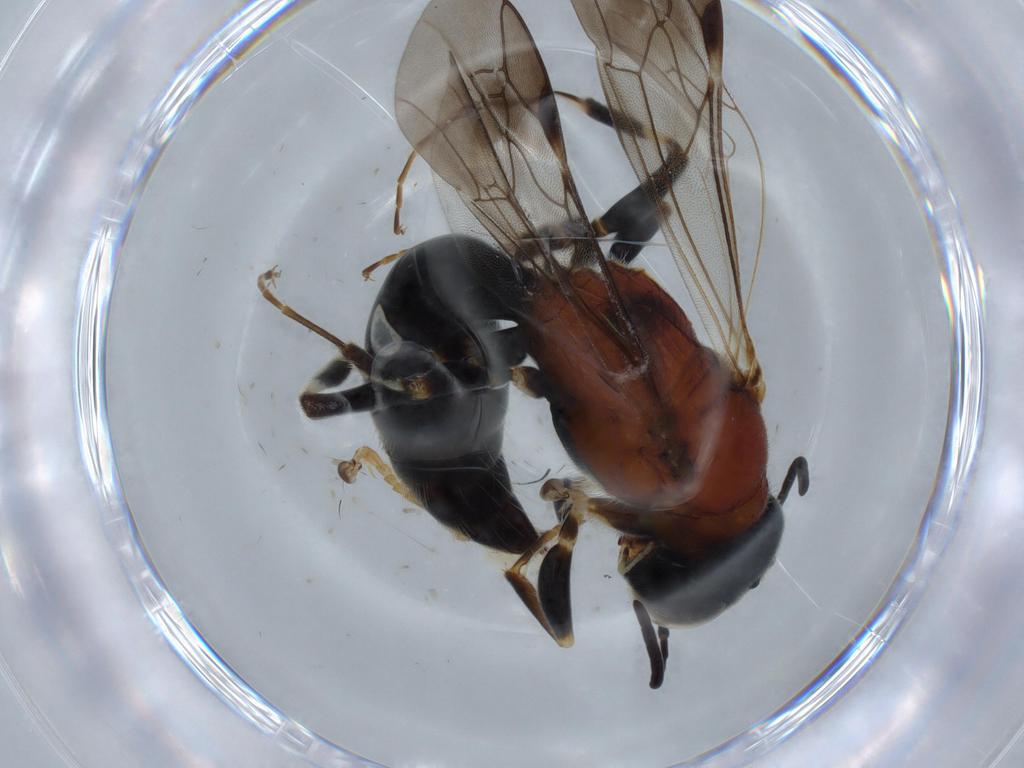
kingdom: Animalia
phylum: Arthropoda
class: Insecta
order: Hymenoptera
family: Bembicidae
